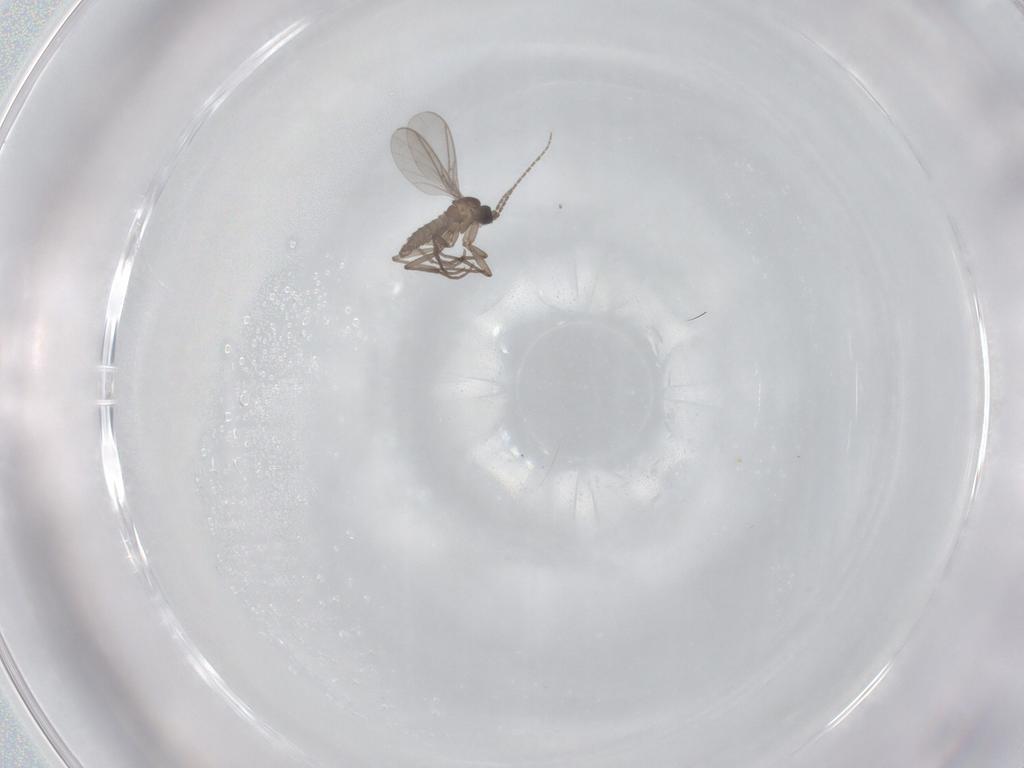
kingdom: Animalia
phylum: Arthropoda
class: Insecta
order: Diptera
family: Sciaridae
